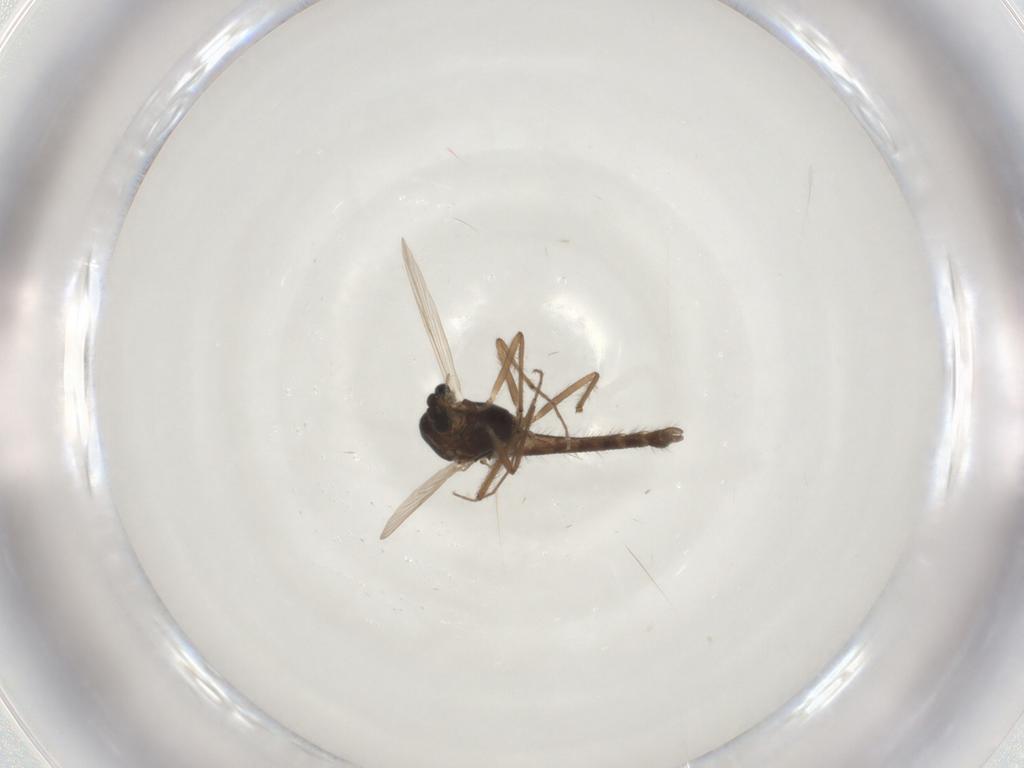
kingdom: Animalia
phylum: Arthropoda
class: Insecta
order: Diptera
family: Chironomidae
